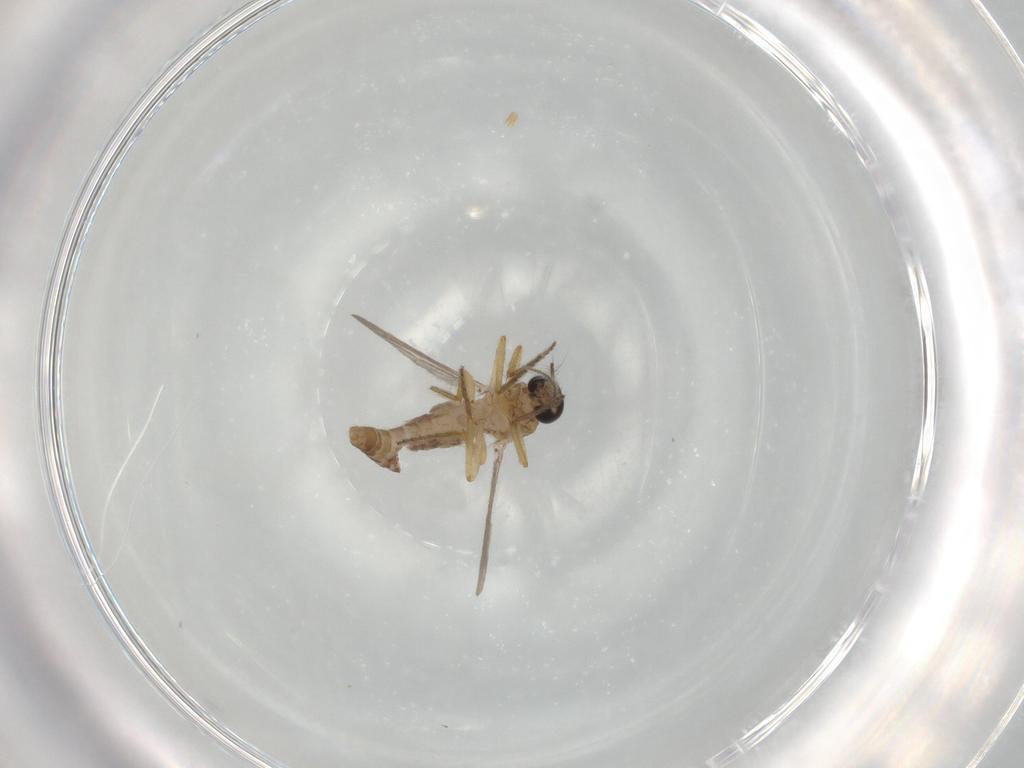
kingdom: Animalia
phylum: Arthropoda
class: Insecta
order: Diptera
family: Ceratopogonidae
